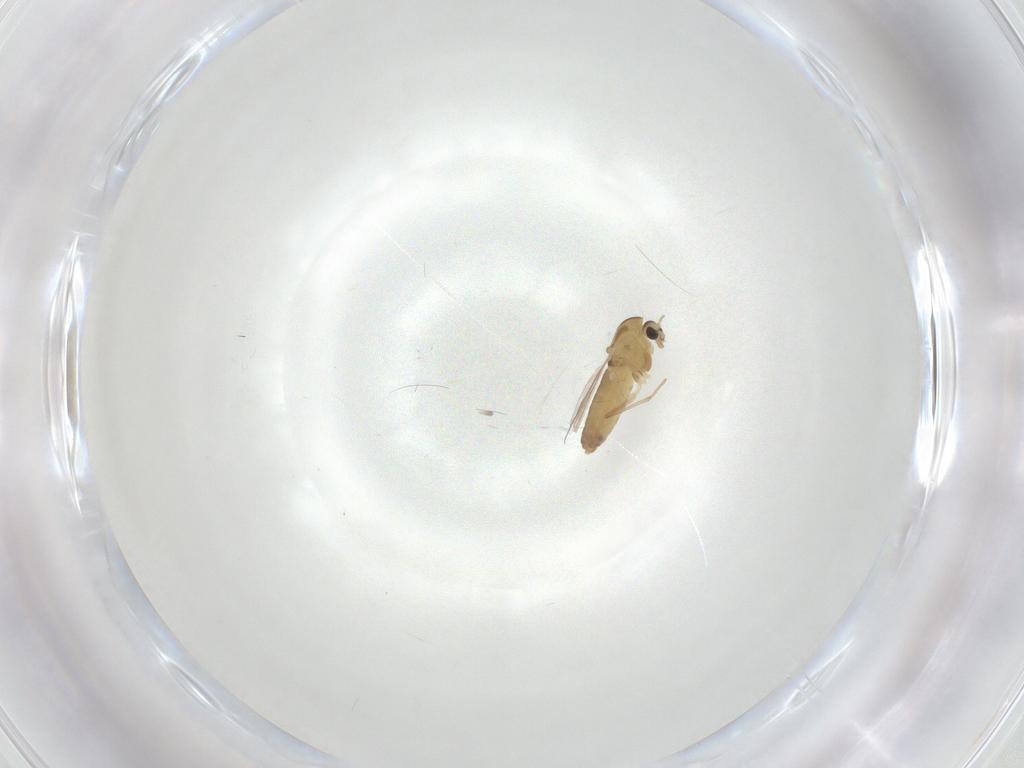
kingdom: Animalia
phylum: Arthropoda
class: Insecta
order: Diptera
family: Chironomidae
